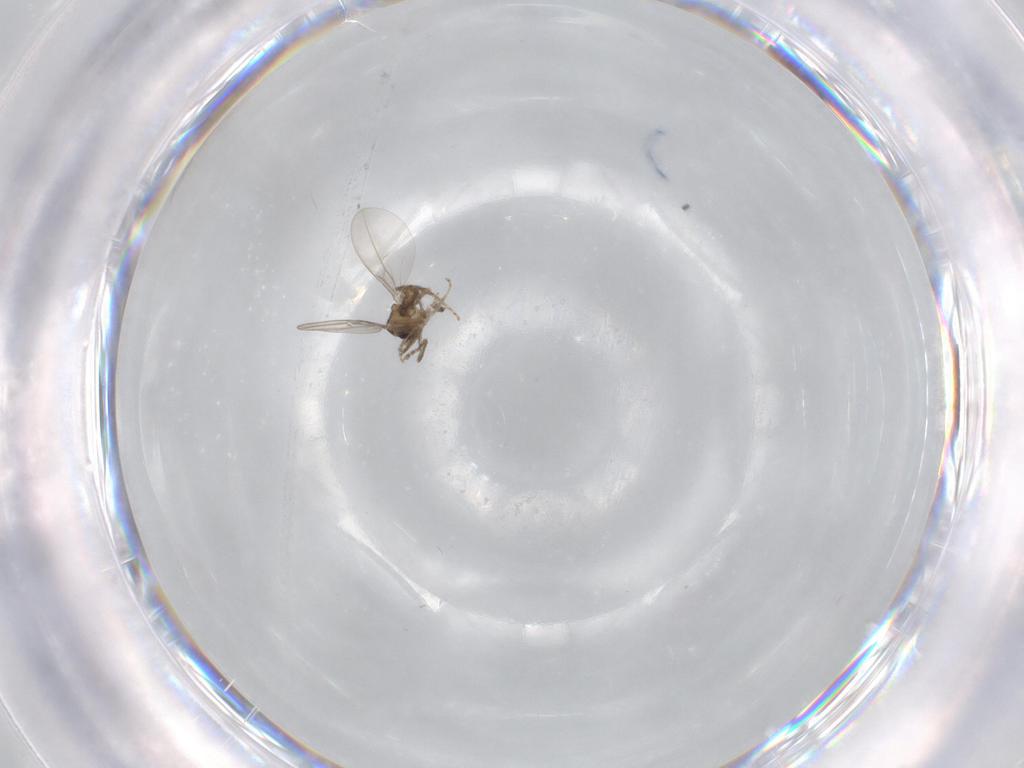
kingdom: Animalia
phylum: Arthropoda
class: Insecta
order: Diptera
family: Cecidomyiidae
